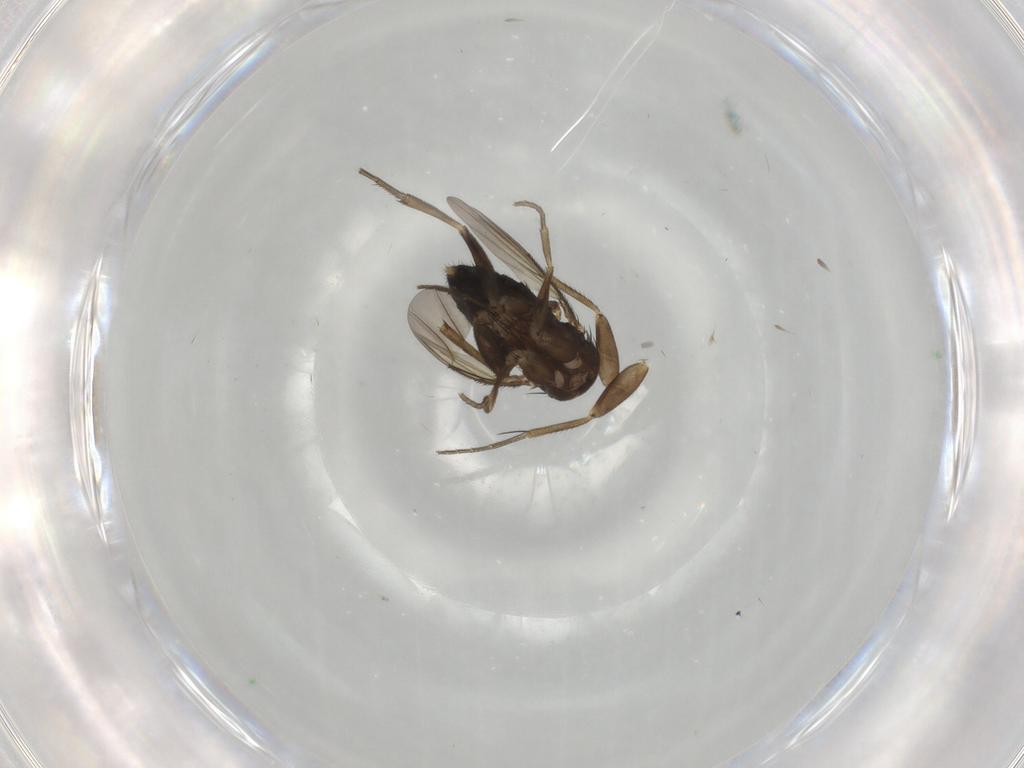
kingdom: Animalia
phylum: Arthropoda
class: Insecta
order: Diptera
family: Phoridae
